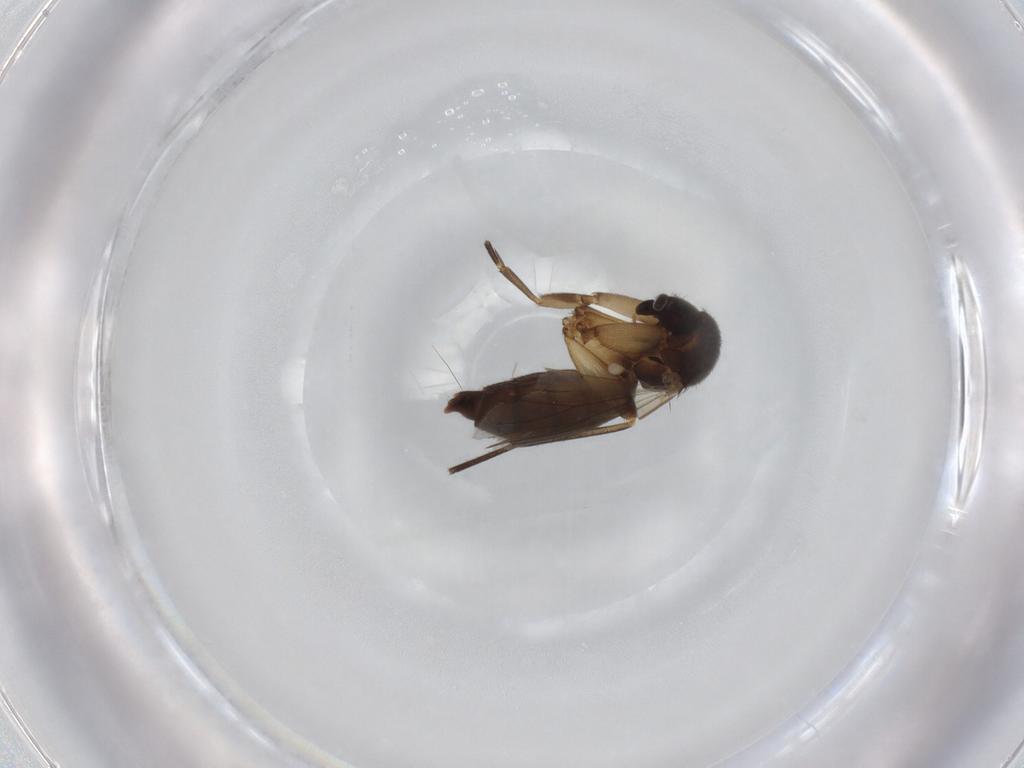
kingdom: Animalia
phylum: Arthropoda
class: Insecta
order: Diptera
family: Mycetophilidae
